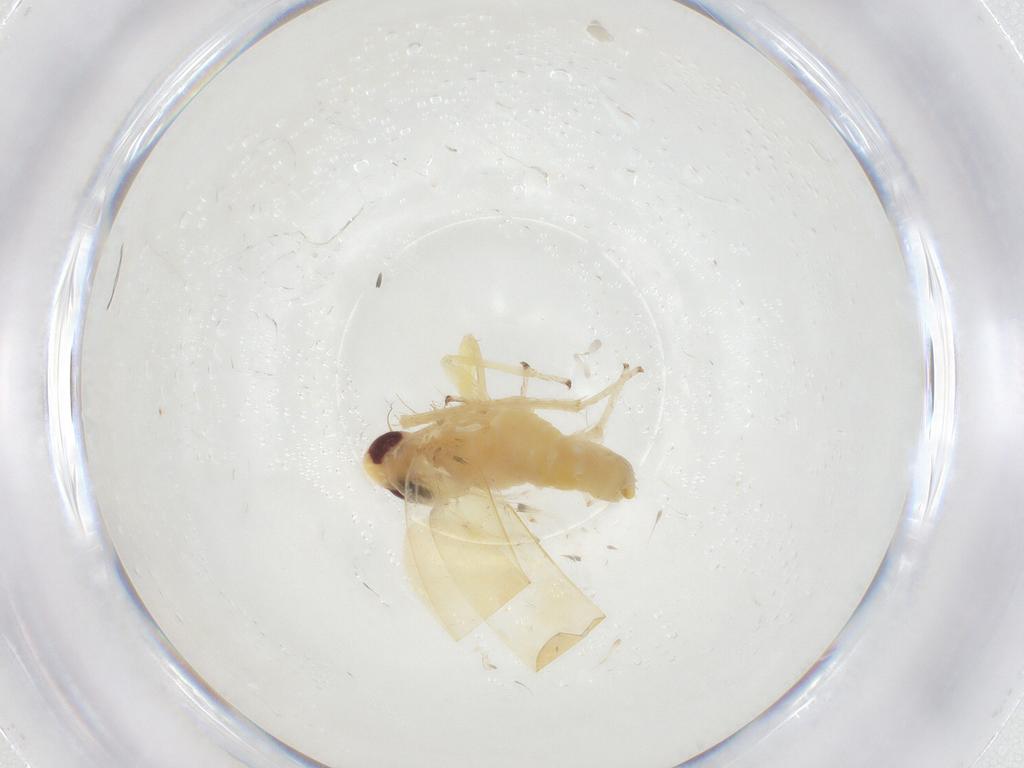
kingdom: Animalia
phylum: Arthropoda
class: Insecta
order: Hemiptera
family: Cicadellidae
